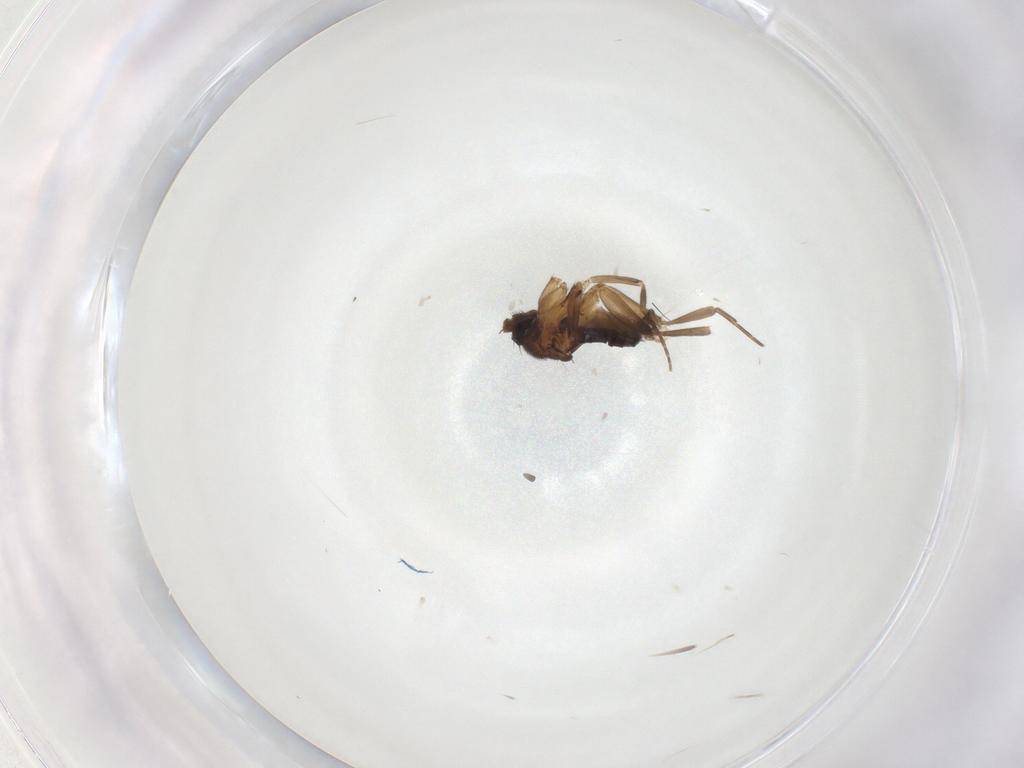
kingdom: Animalia
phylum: Arthropoda
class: Insecta
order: Diptera
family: Cecidomyiidae
